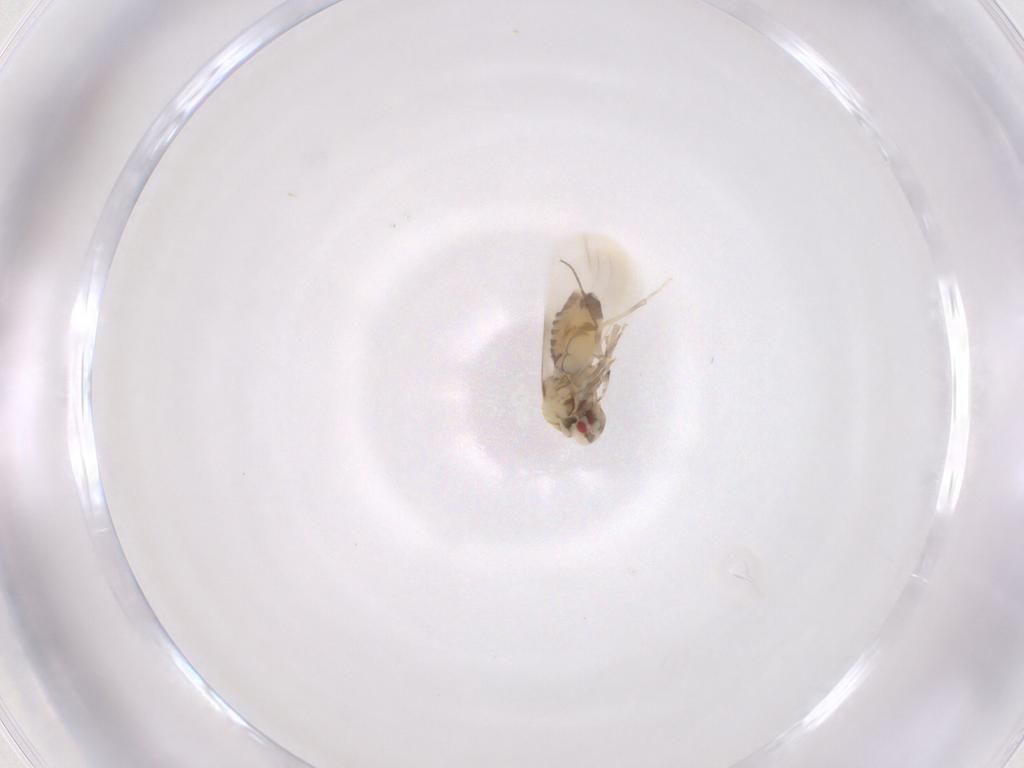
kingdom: Animalia
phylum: Arthropoda
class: Insecta
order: Hemiptera
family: Aleyrodidae
